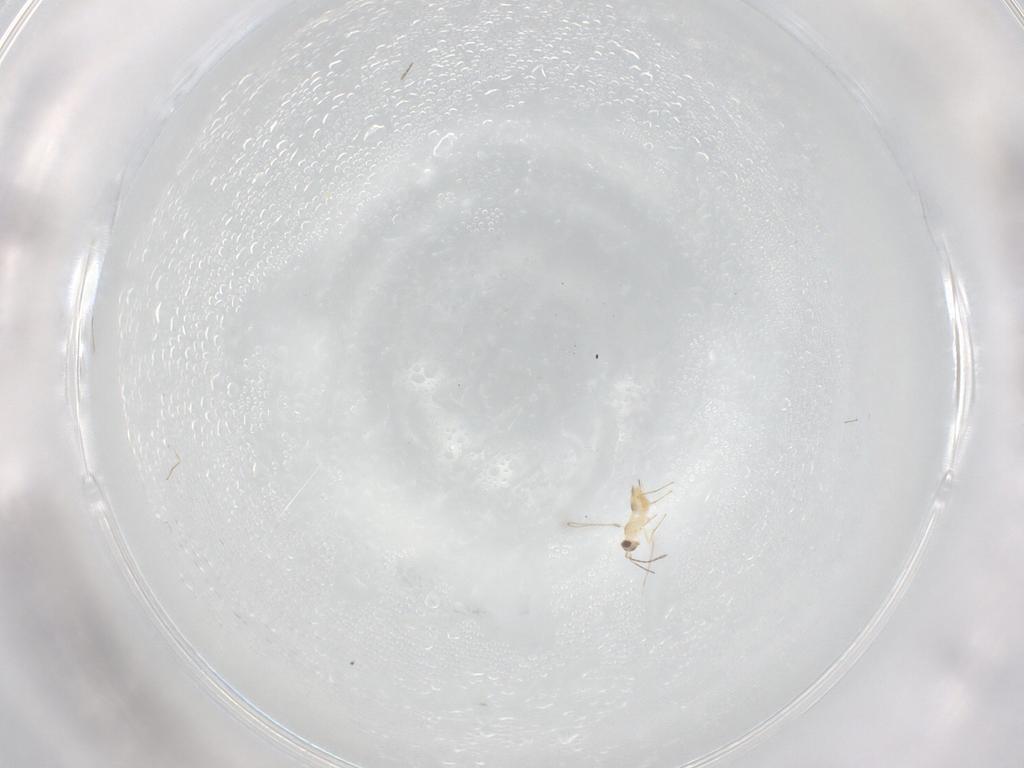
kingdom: Animalia
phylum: Arthropoda
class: Insecta
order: Hymenoptera
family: Mymaridae
